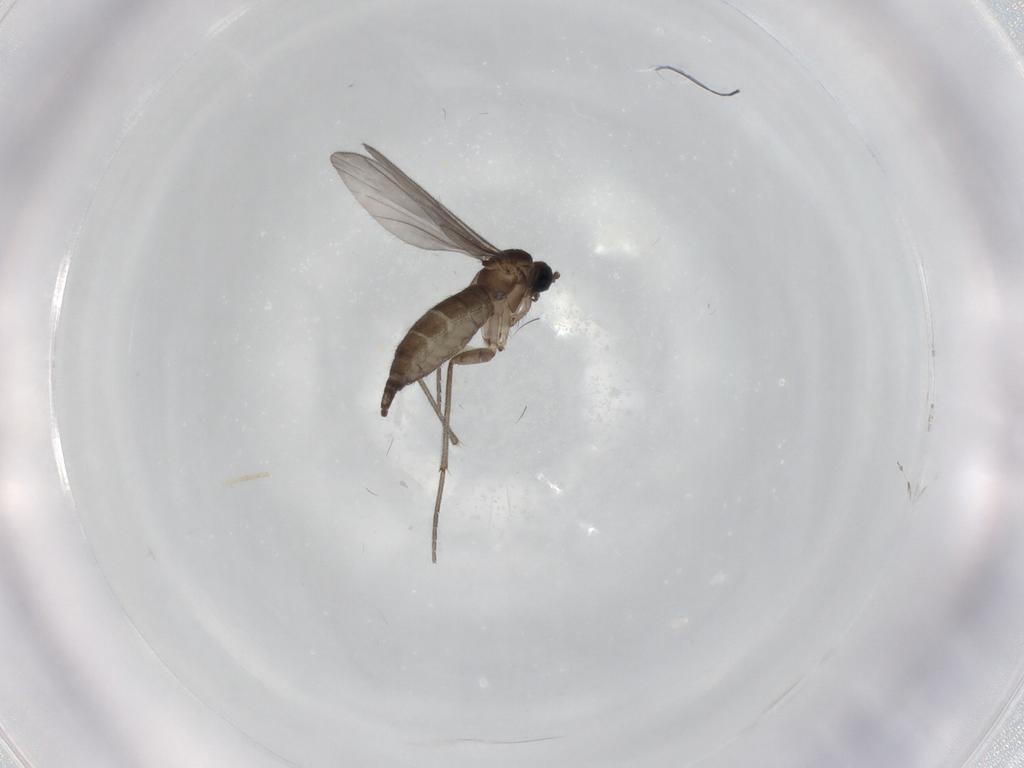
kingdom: Animalia
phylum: Arthropoda
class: Insecta
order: Diptera
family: Sciaridae
